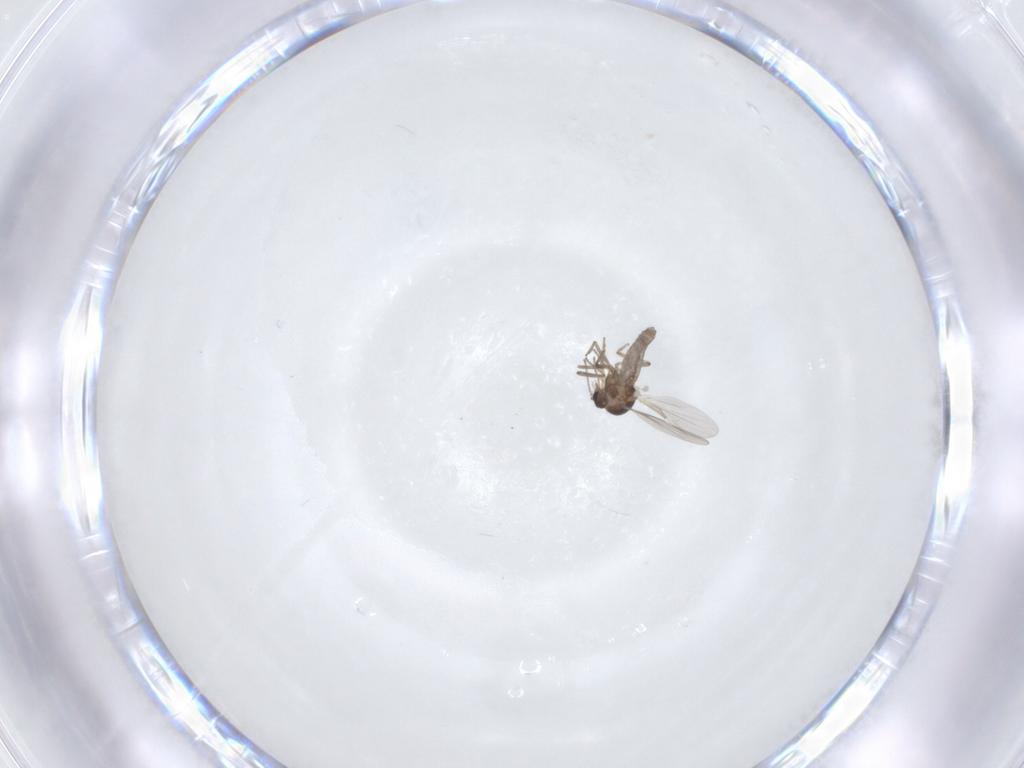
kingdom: Animalia
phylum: Arthropoda
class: Insecta
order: Diptera
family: Ceratopogonidae
